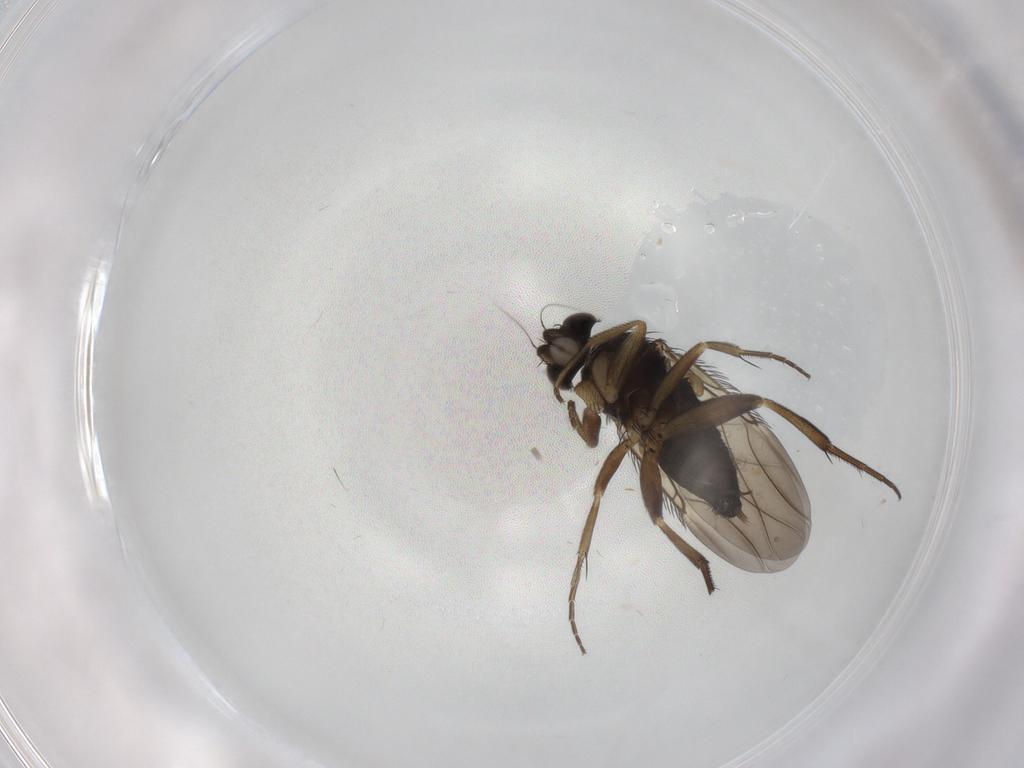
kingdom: Animalia
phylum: Arthropoda
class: Insecta
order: Diptera
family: Phoridae
